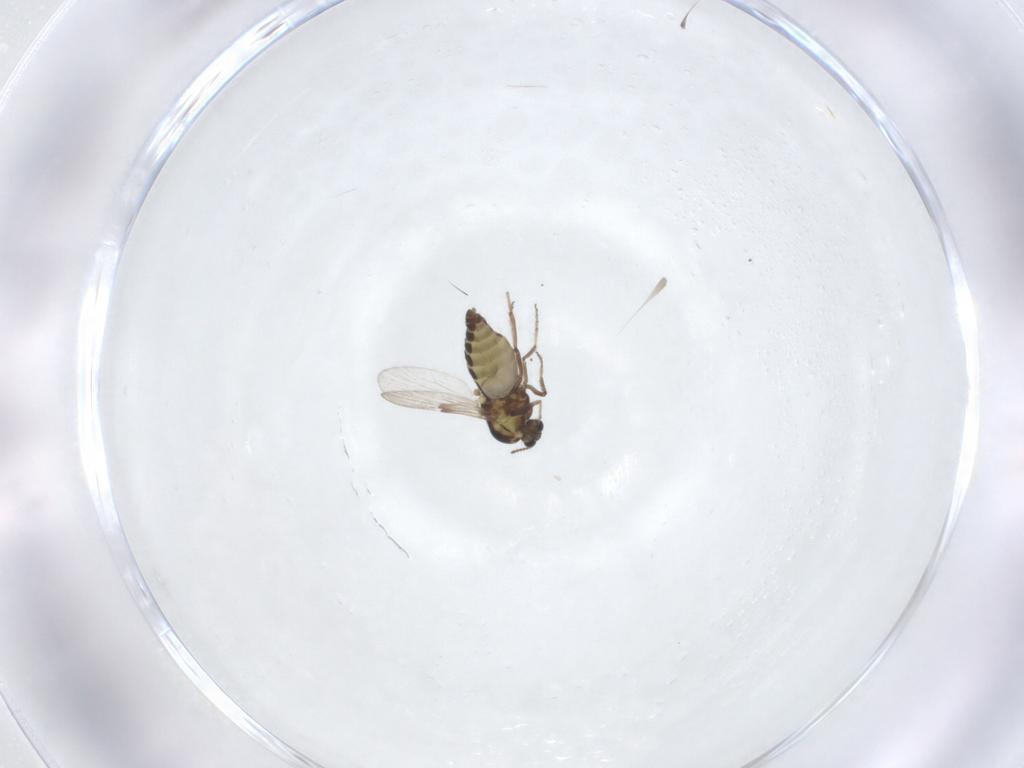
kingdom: Animalia
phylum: Arthropoda
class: Insecta
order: Diptera
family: Ceratopogonidae
